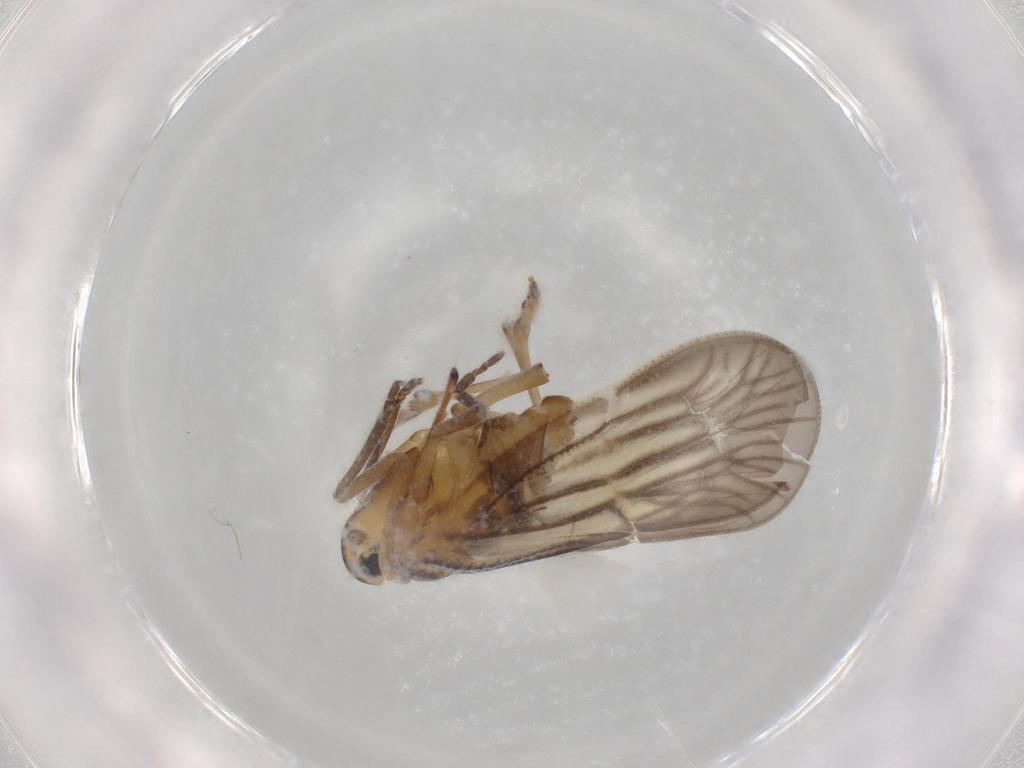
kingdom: Animalia
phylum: Arthropoda
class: Insecta
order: Hemiptera
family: Meenoplidae
